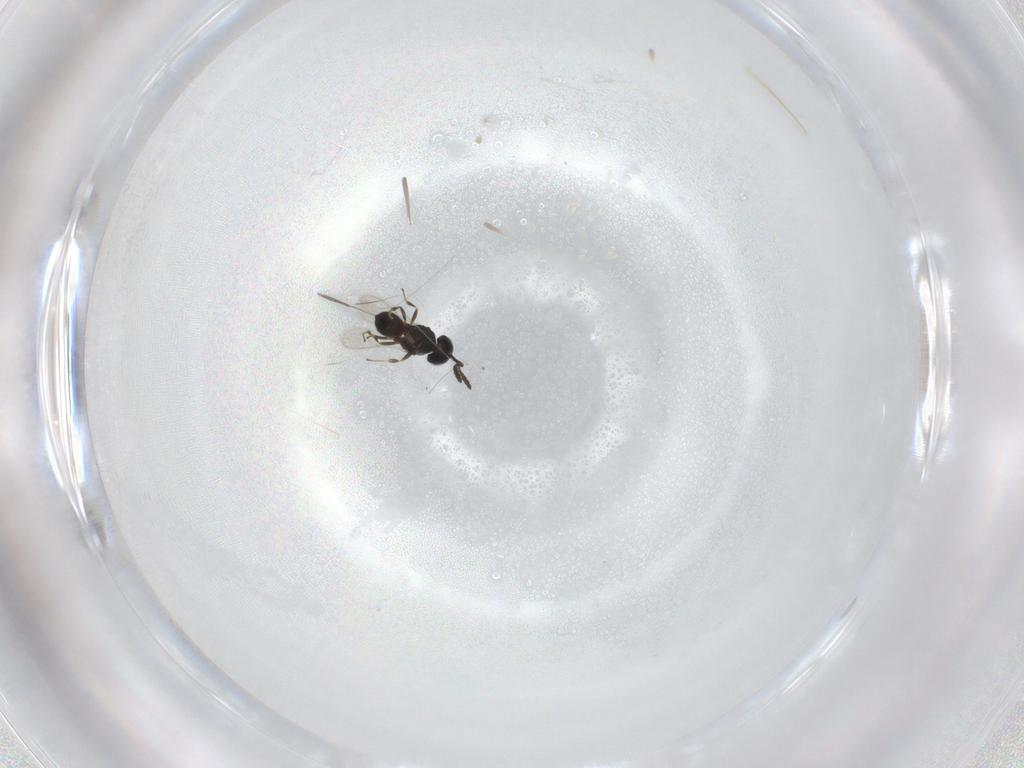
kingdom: Animalia
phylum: Arthropoda
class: Insecta
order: Hymenoptera
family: Scelionidae
